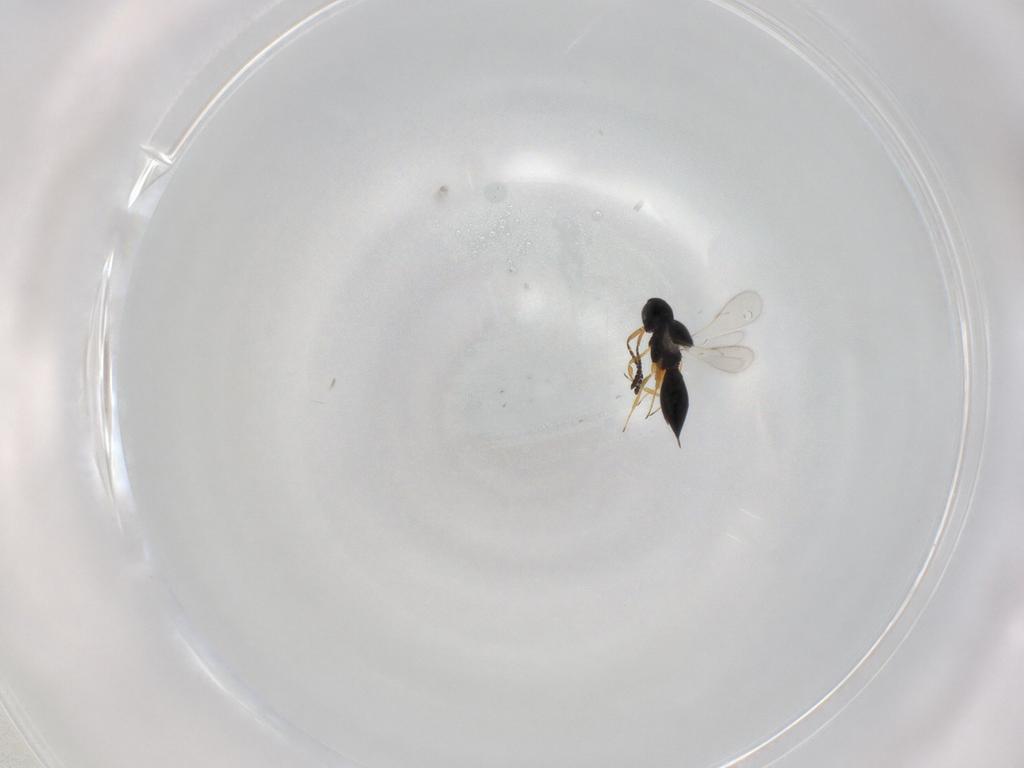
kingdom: Animalia
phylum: Arthropoda
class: Insecta
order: Hymenoptera
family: Scelionidae
